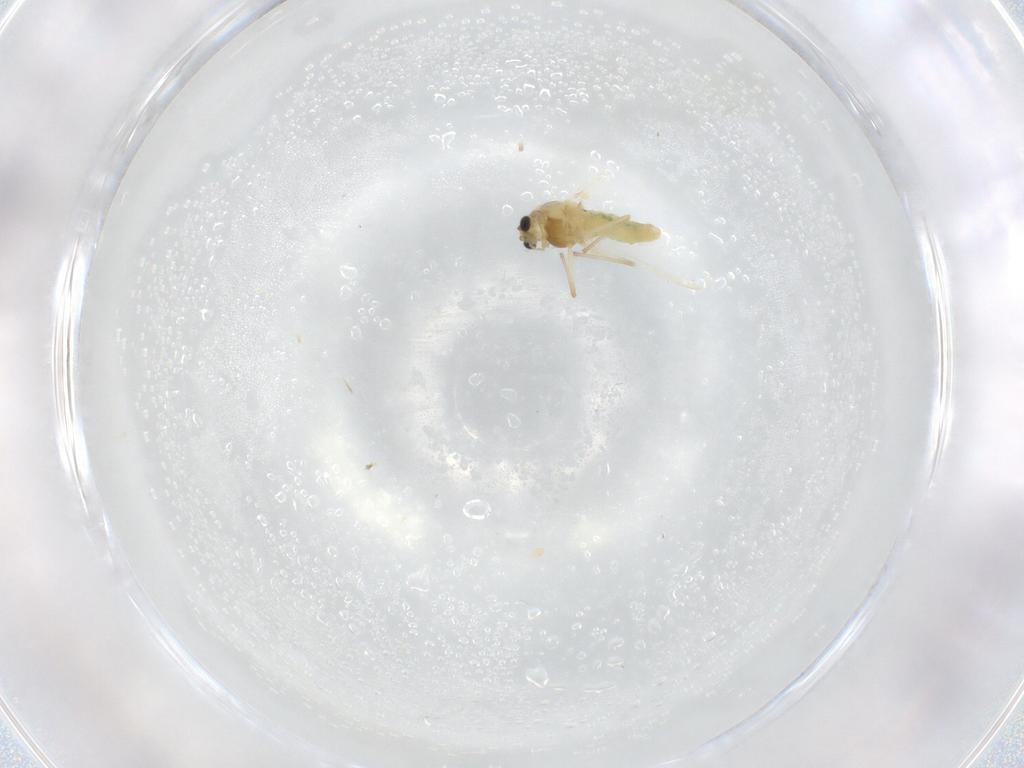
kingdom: Animalia
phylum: Arthropoda
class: Insecta
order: Diptera
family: Chironomidae
